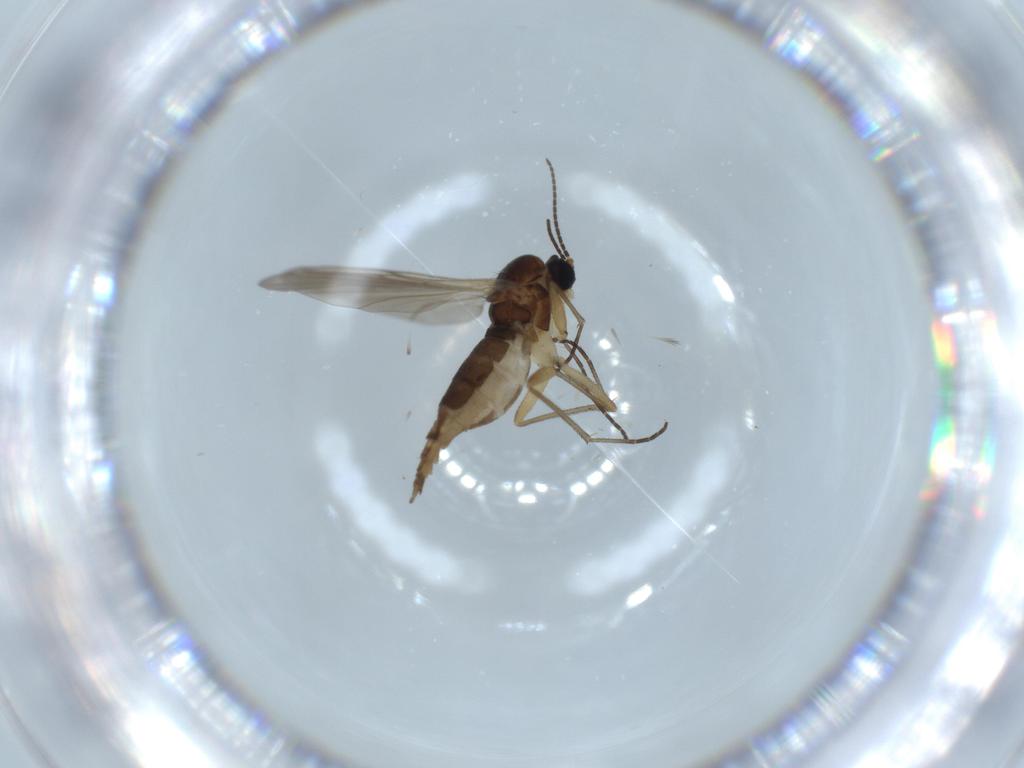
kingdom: Animalia
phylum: Arthropoda
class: Insecta
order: Diptera
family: Sciaridae
